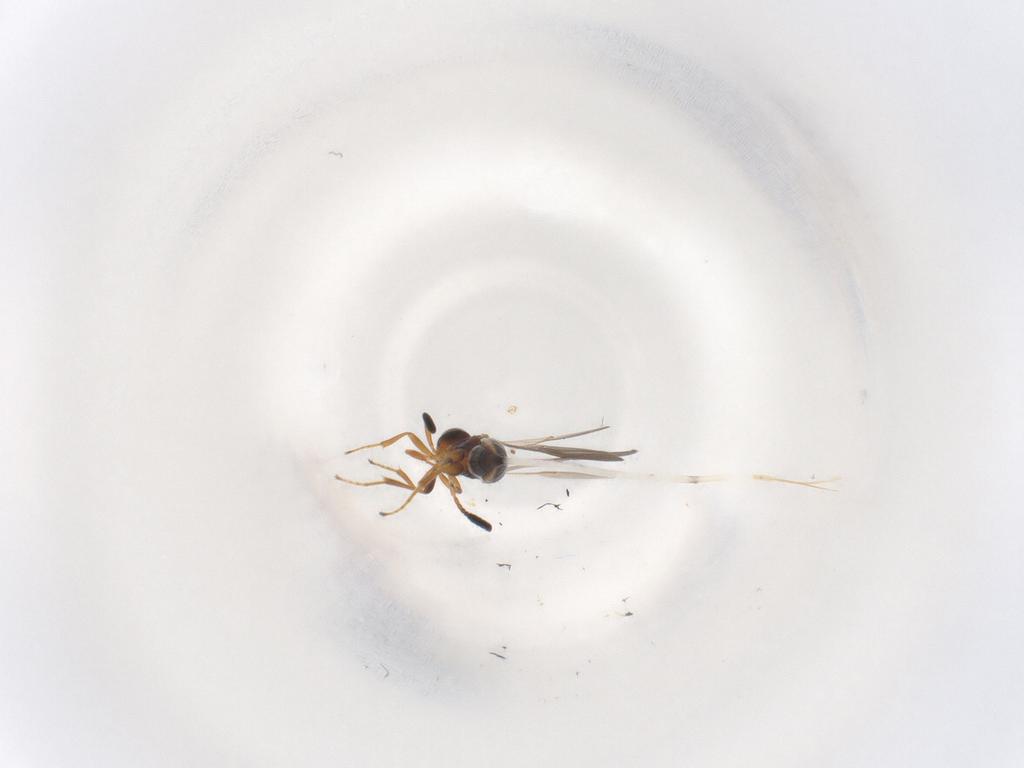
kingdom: Animalia
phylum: Arthropoda
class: Insecta
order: Hymenoptera
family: Scelionidae
